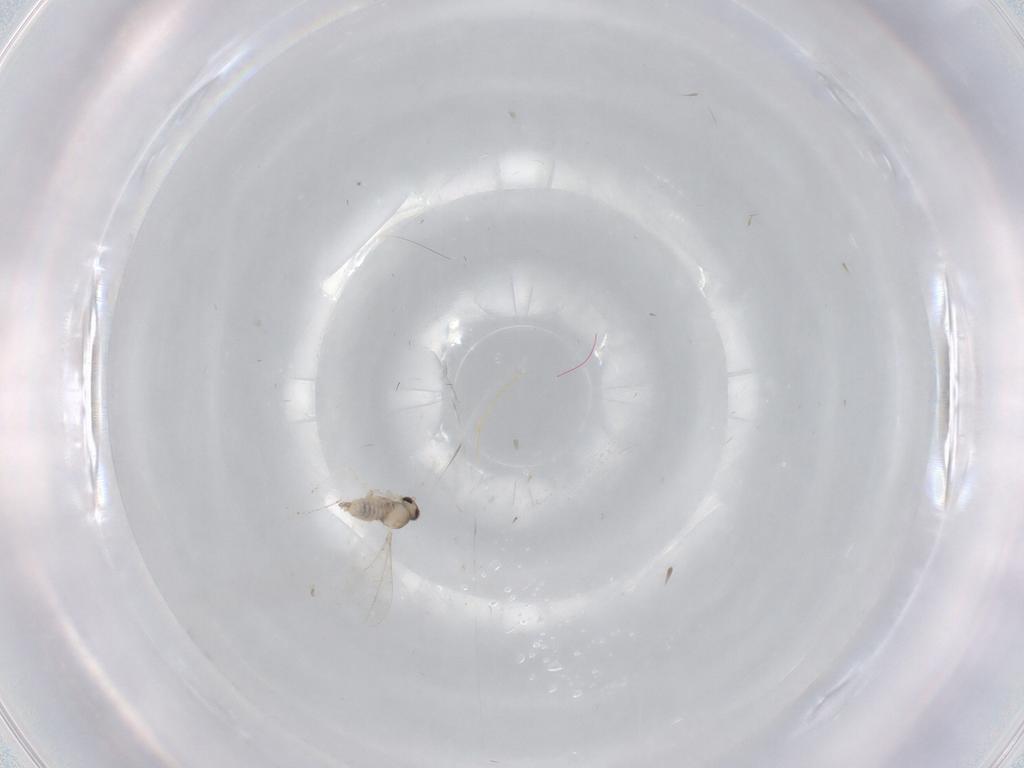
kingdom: Animalia
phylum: Arthropoda
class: Insecta
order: Diptera
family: Cecidomyiidae
